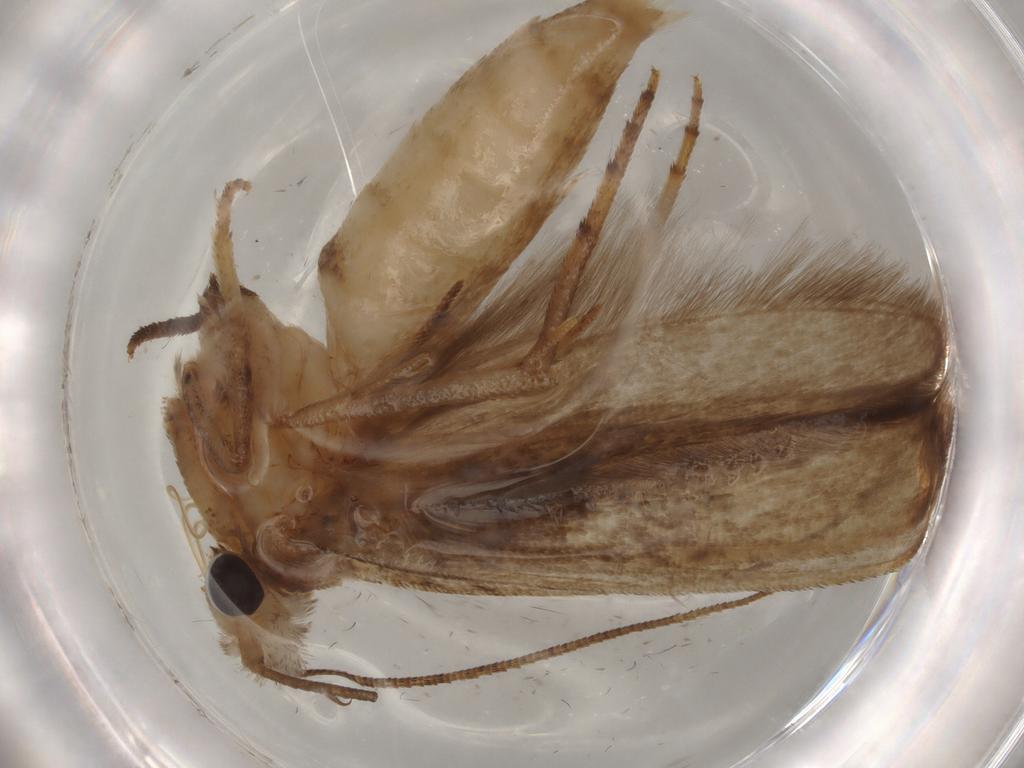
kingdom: Animalia
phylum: Arthropoda
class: Insecta
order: Lepidoptera
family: Yponomeutidae
